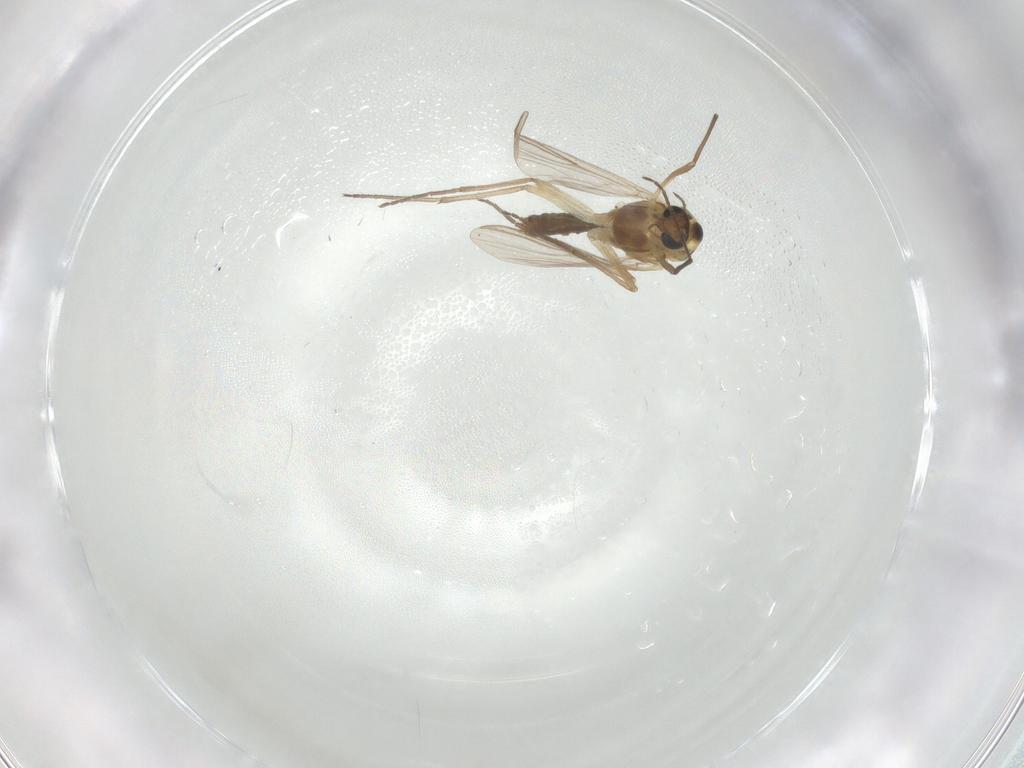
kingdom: Animalia
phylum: Arthropoda
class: Insecta
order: Diptera
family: Chironomidae
